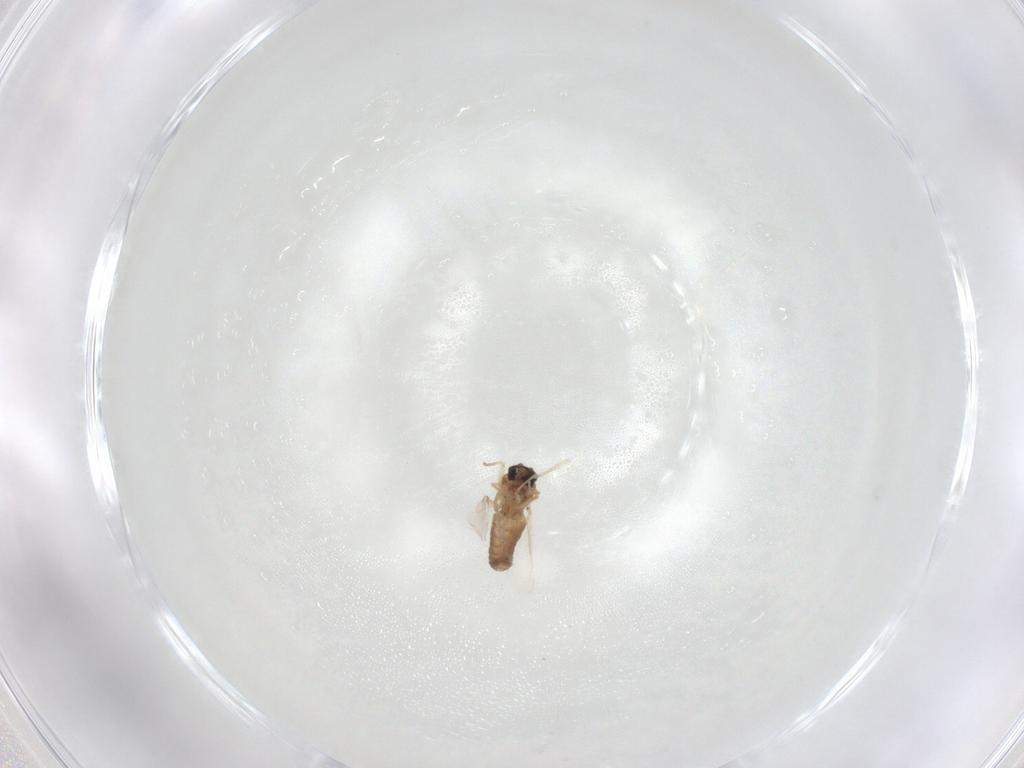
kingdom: Animalia
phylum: Arthropoda
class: Insecta
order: Diptera
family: Ceratopogonidae
